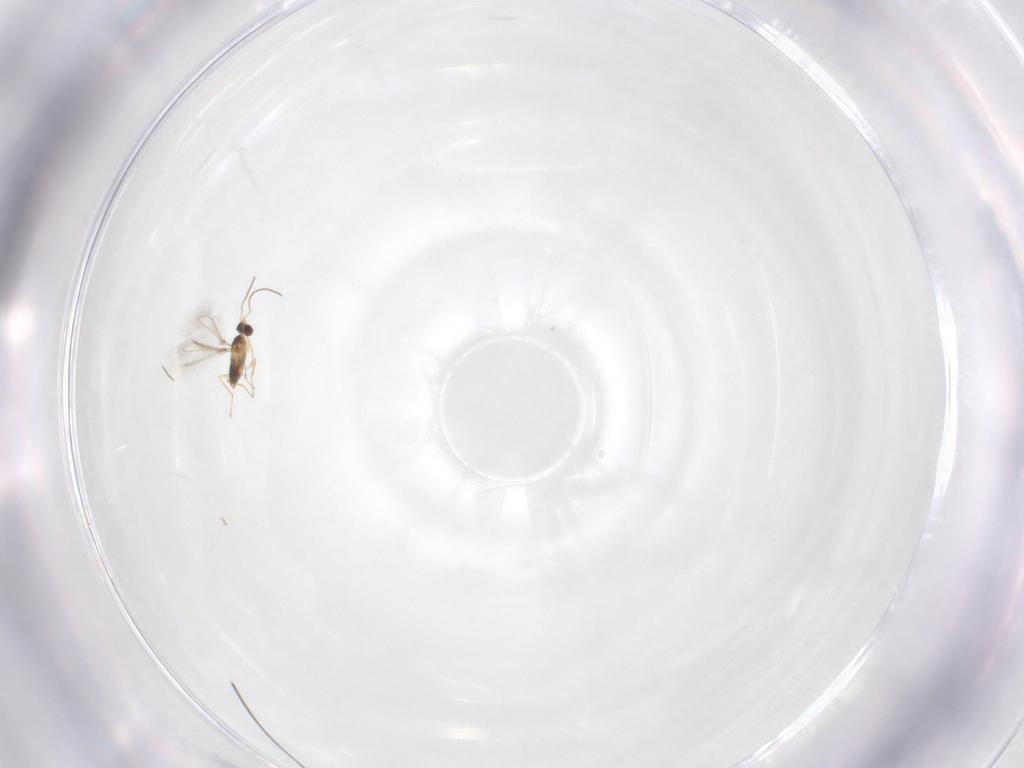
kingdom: Animalia
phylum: Arthropoda
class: Insecta
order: Hymenoptera
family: Mymaridae
